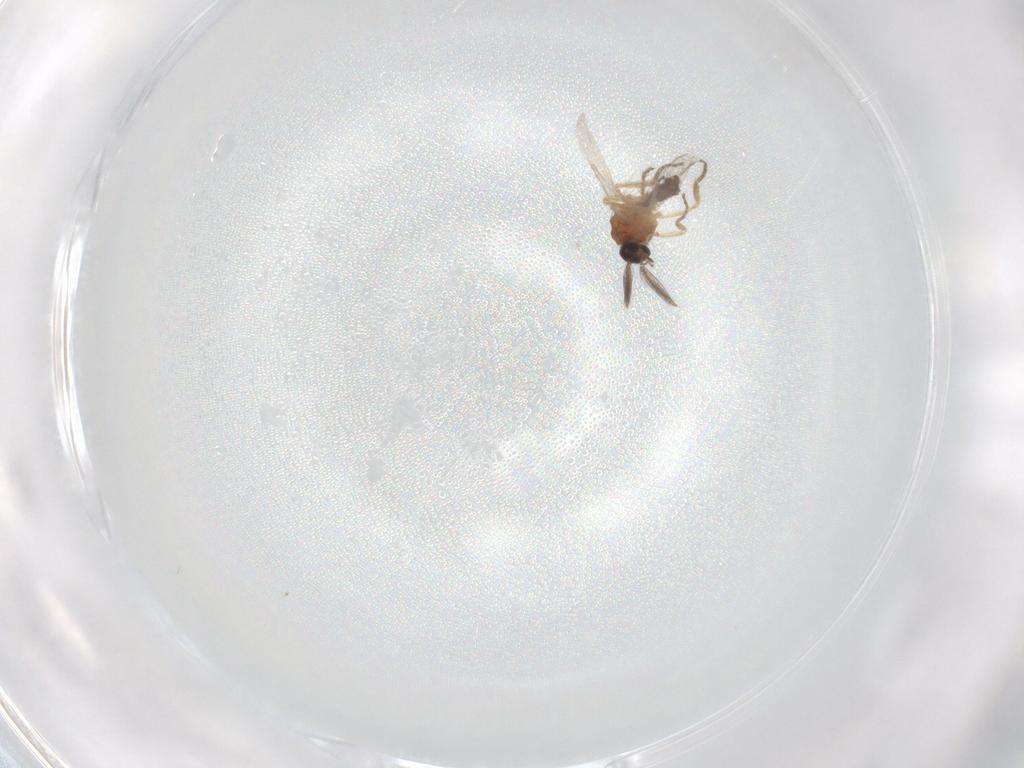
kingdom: Animalia
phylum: Arthropoda
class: Insecta
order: Diptera
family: Ceratopogonidae
